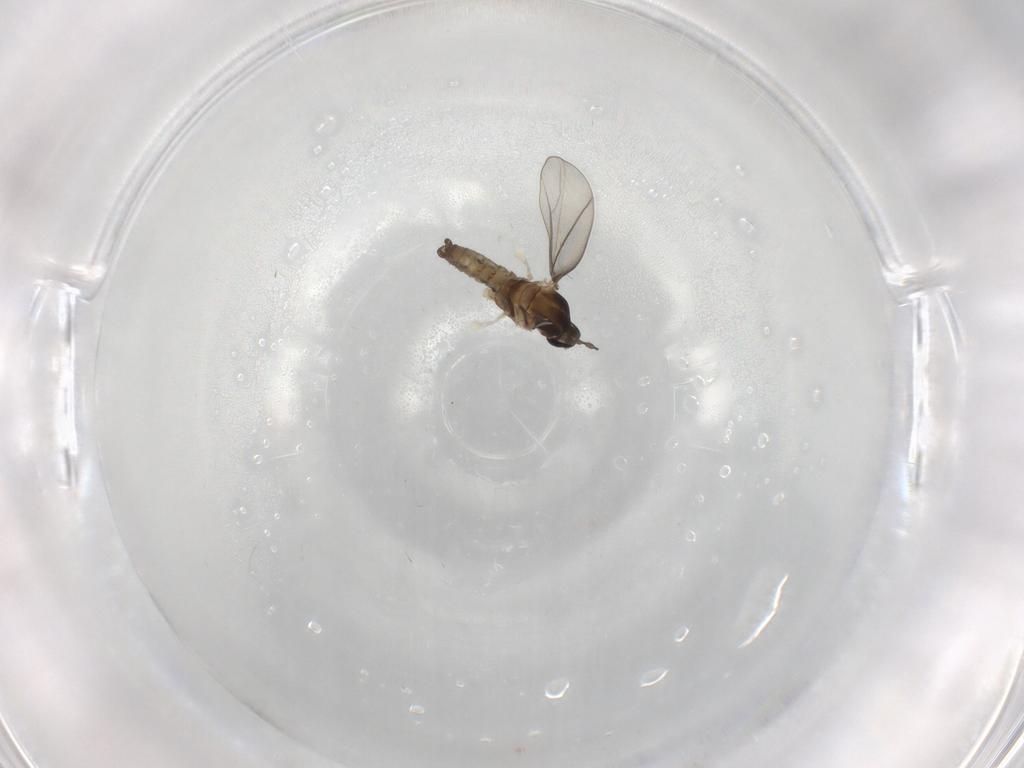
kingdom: Animalia
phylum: Arthropoda
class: Insecta
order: Diptera
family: Cecidomyiidae
